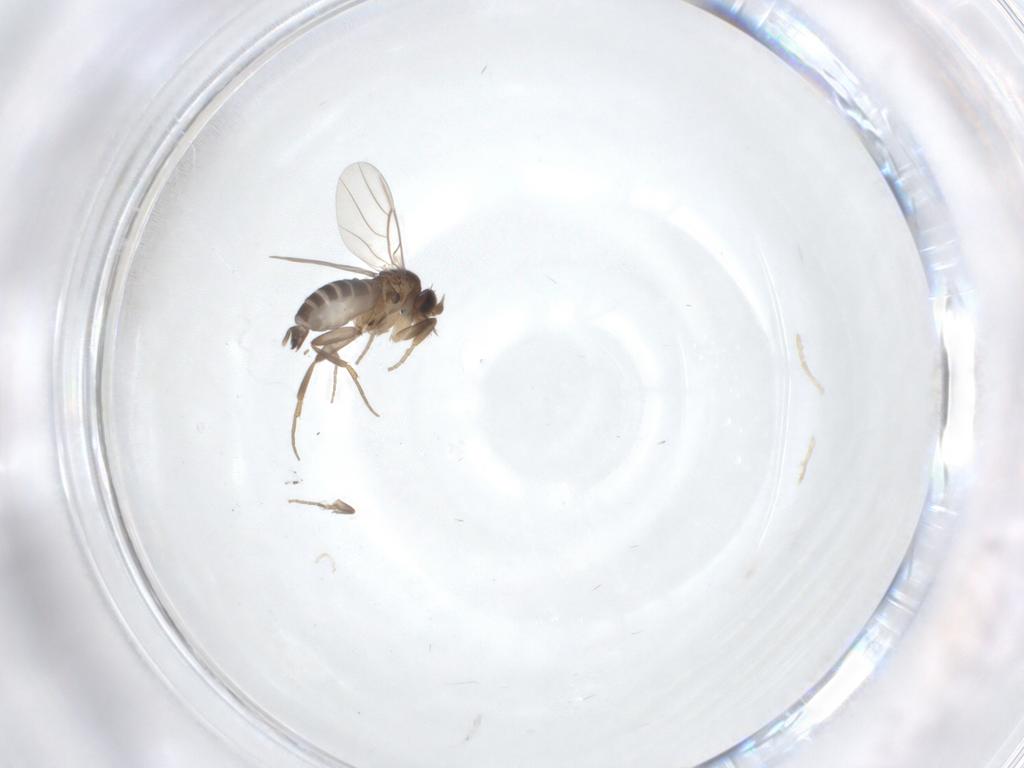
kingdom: Animalia
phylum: Arthropoda
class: Insecta
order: Diptera
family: Phoridae
